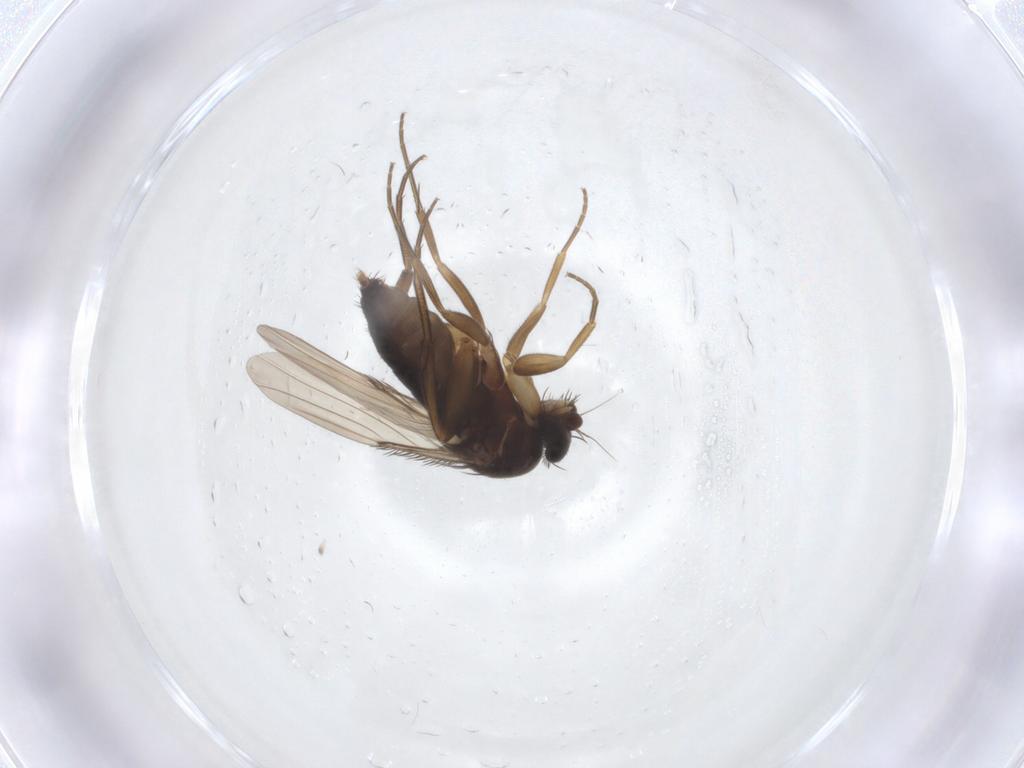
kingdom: Animalia
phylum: Arthropoda
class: Insecta
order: Diptera
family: Phoridae
